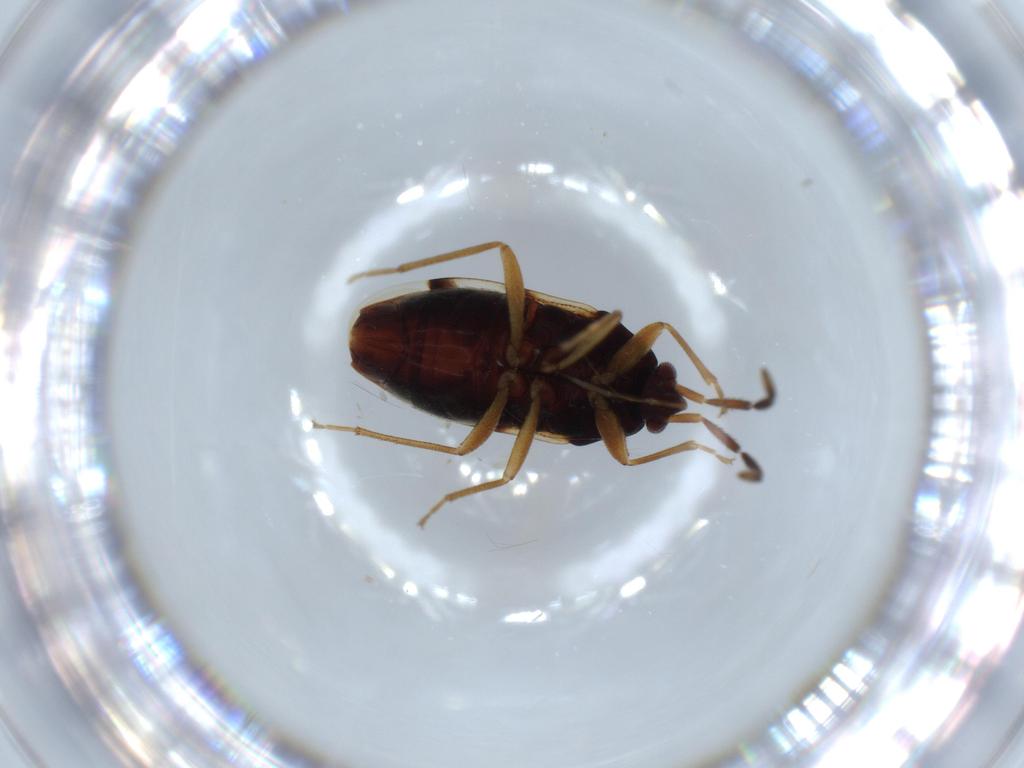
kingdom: Animalia
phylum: Arthropoda
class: Insecta
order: Hemiptera
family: Rhyparochromidae
